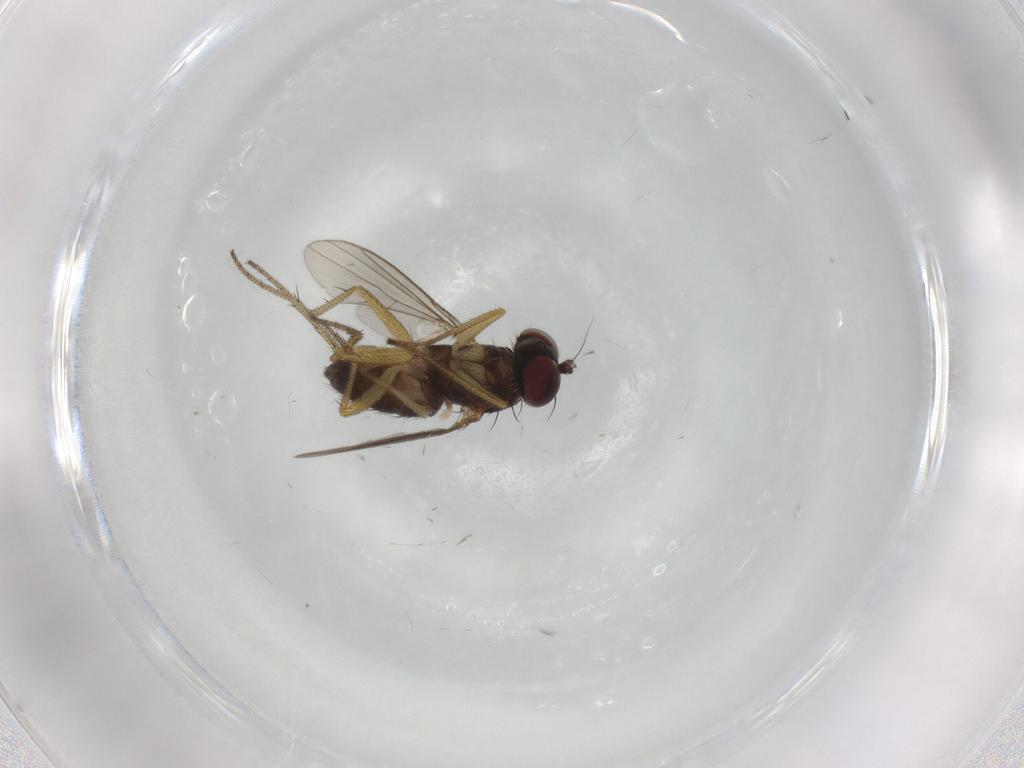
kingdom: Animalia
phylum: Arthropoda
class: Insecta
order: Diptera
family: Dolichopodidae
